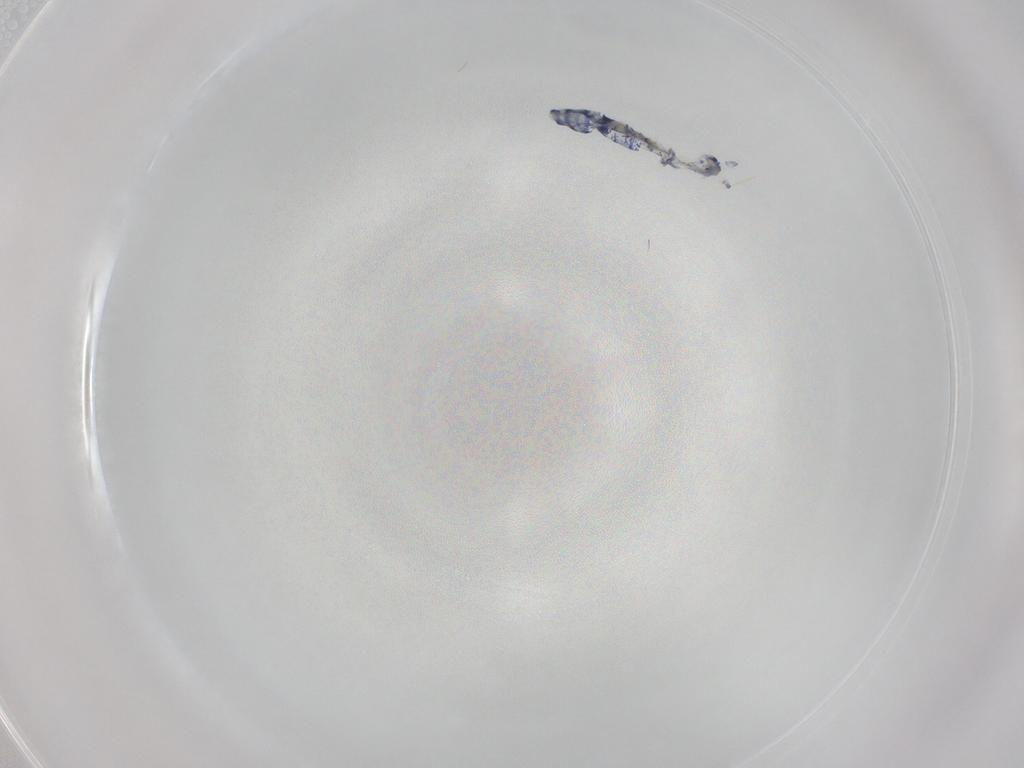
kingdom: Animalia
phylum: Arthropoda
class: Collembola
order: Entomobryomorpha
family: Orchesellidae
